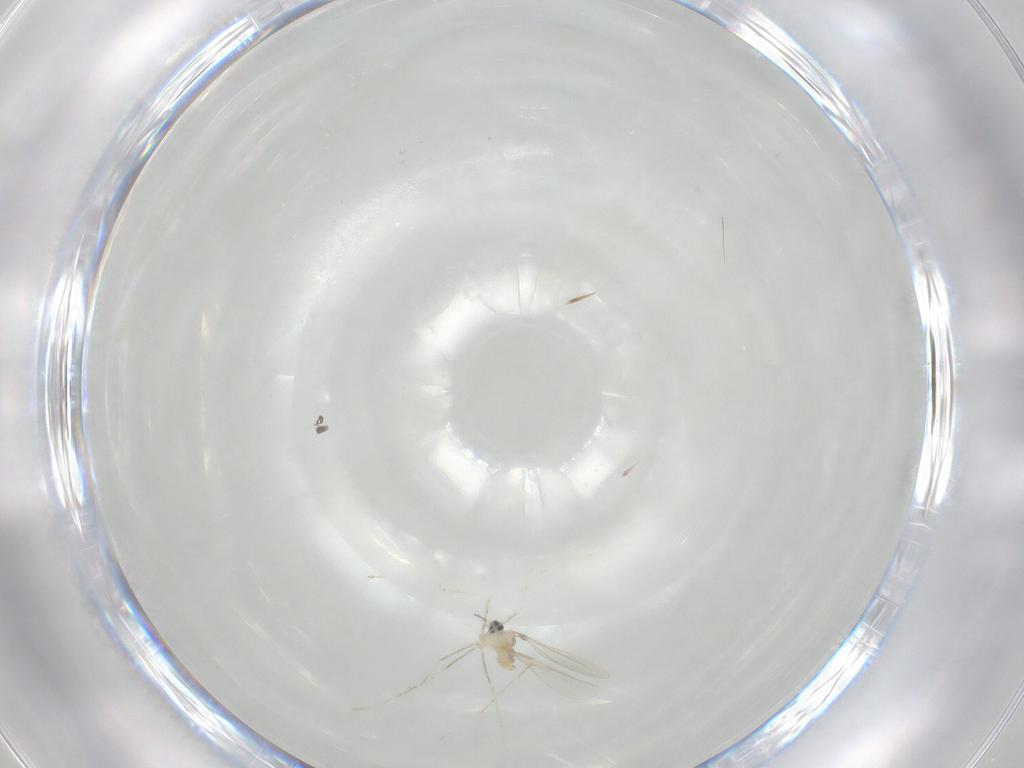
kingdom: Animalia
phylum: Arthropoda
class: Insecta
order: Diptera
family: Cecidomyiidae
